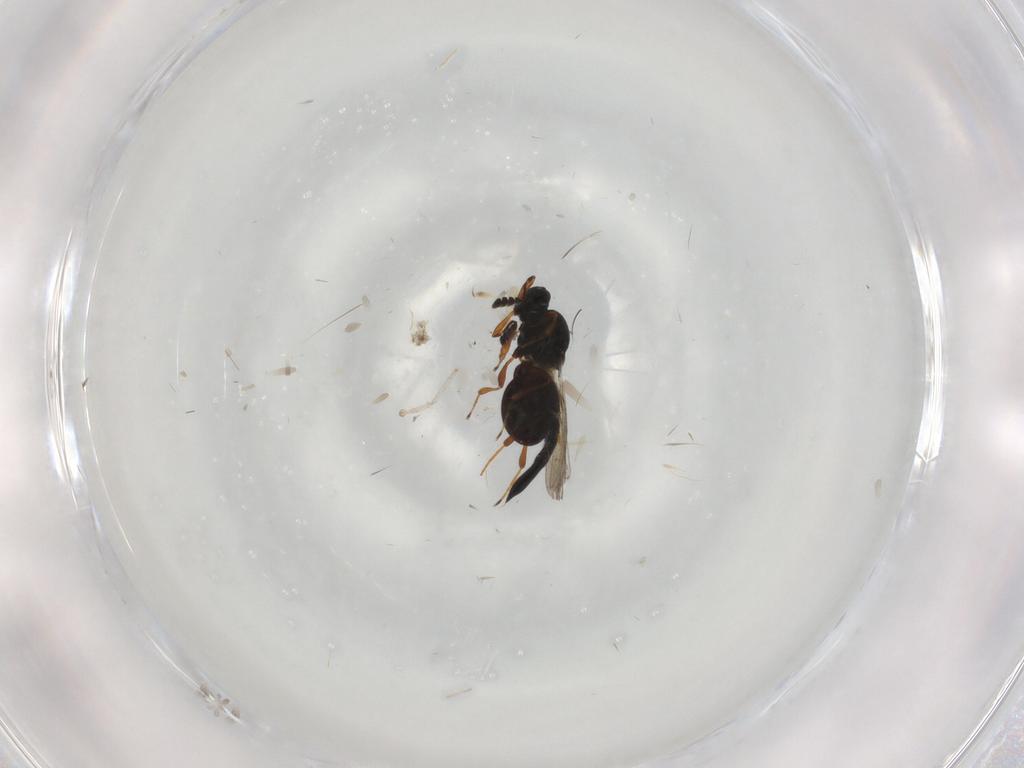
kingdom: Animalia
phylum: Arthropoda
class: Insecta
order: Hymenoptera
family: Platygastridae
